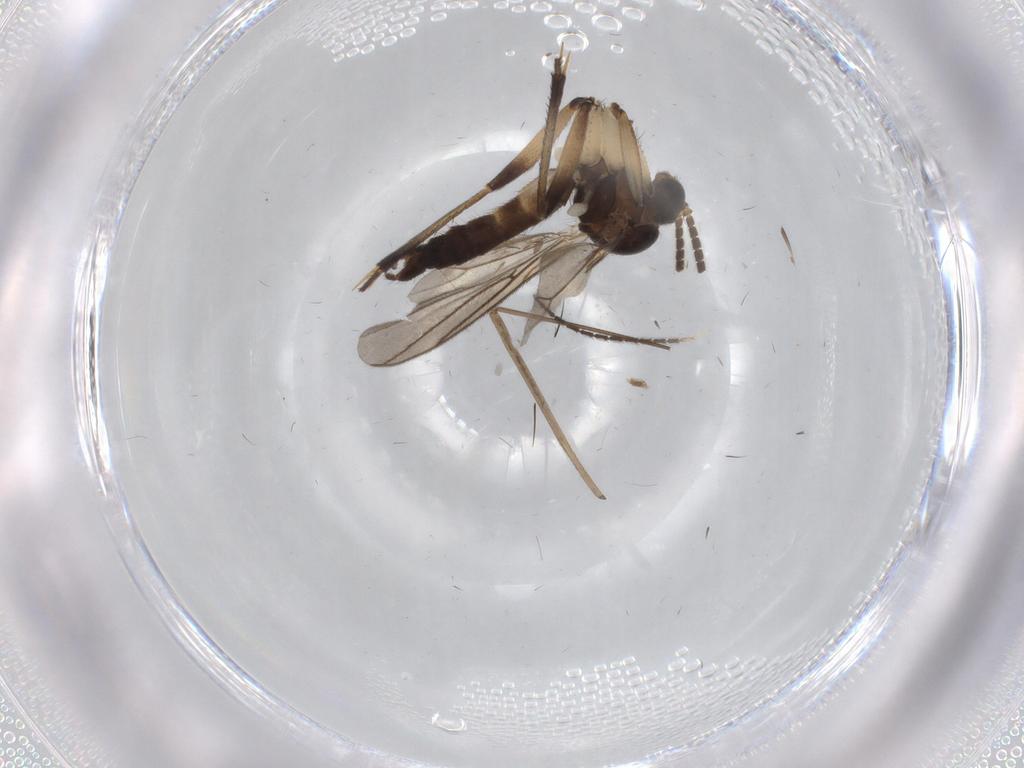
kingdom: Animalia
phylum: Arthropoda
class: Insecta
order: Diptera
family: Mycetophilidae
